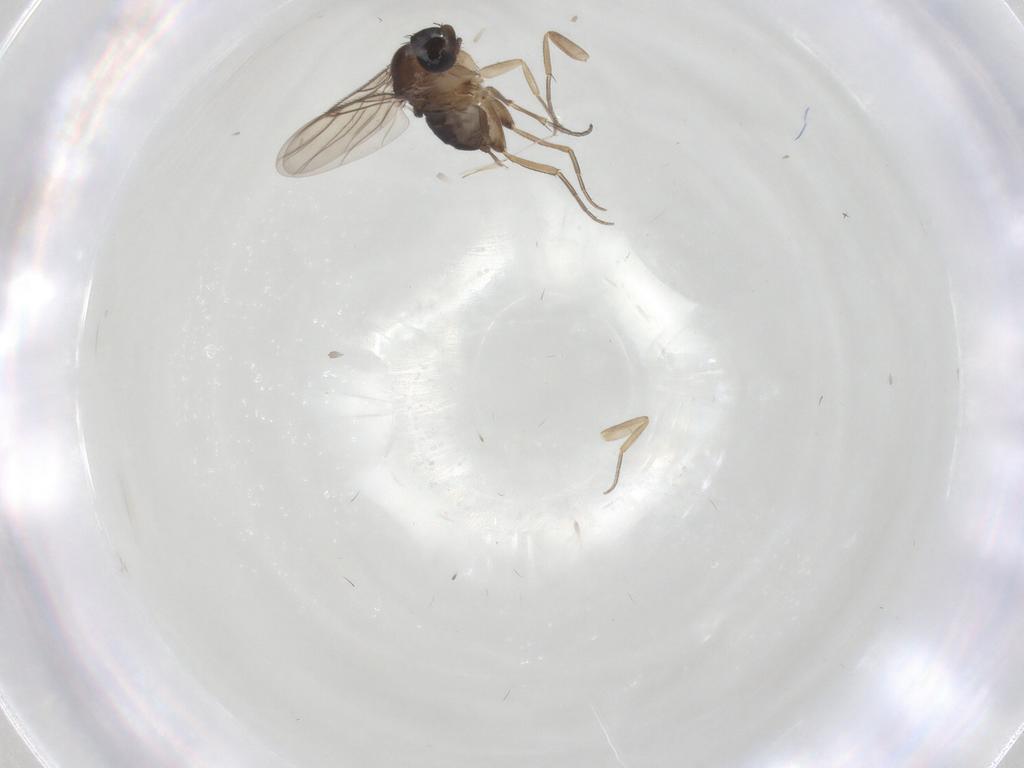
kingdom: Animalia
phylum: Arthropoda
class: Insecta
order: Diptera
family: Cecidomyiidae
